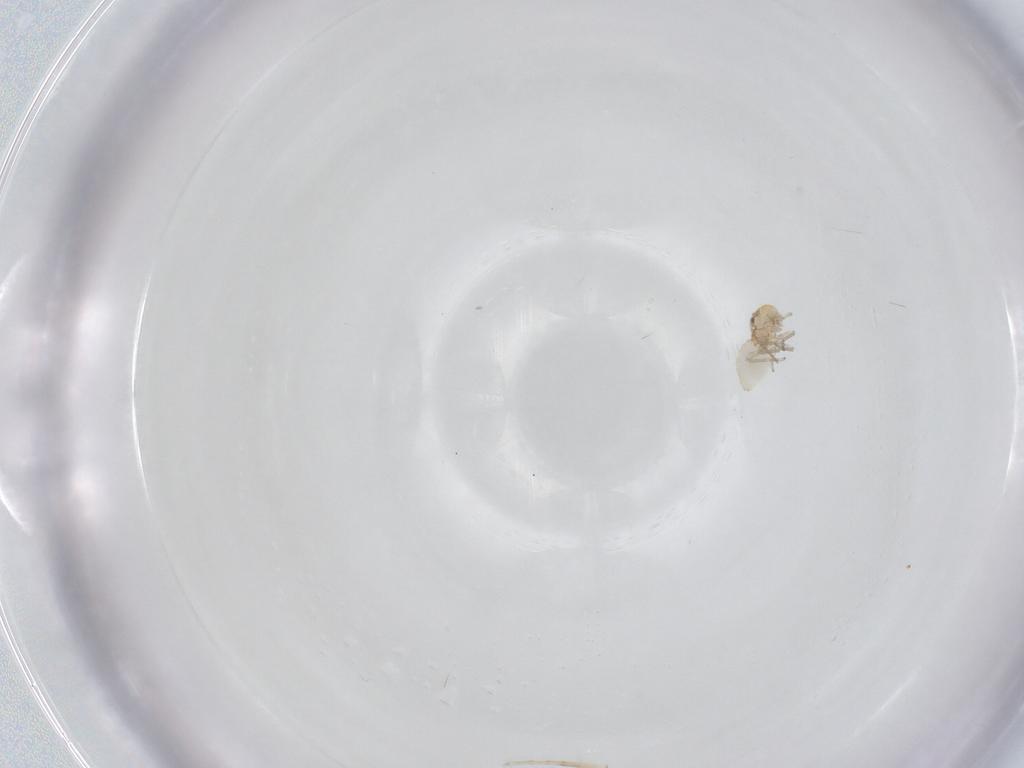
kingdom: Animalia
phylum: Arthropoda
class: Insecta
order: Psocodea
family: Caeciliusidae
